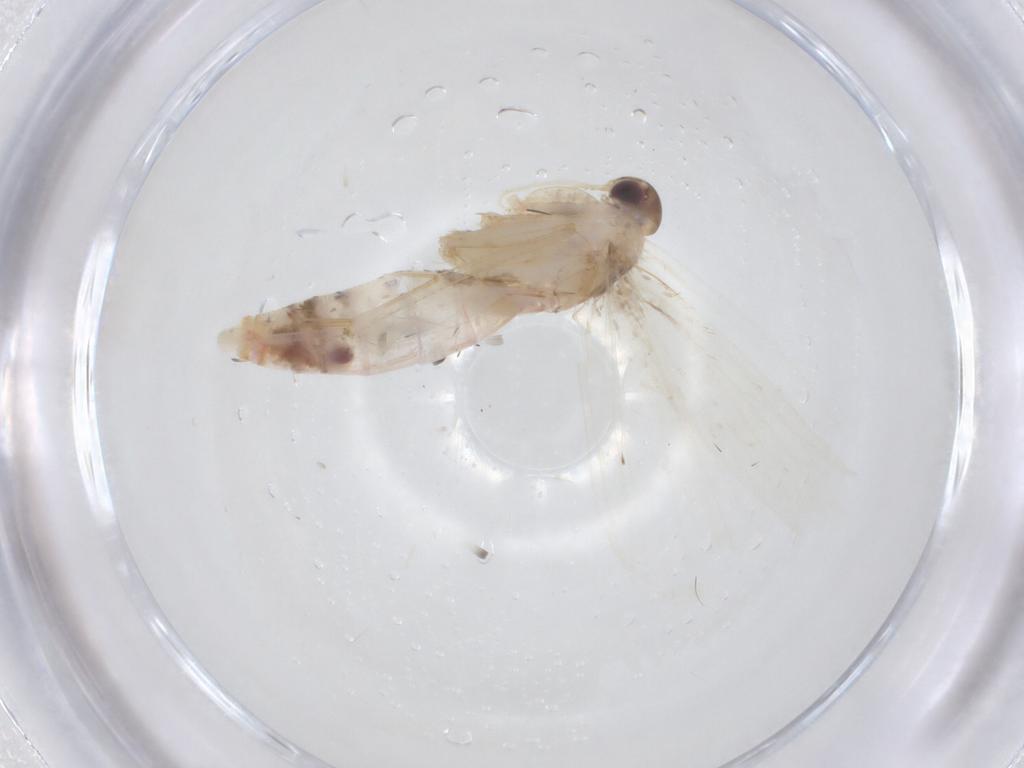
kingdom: Animalia
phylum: Arthropoda
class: Insecta
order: Lepidoptera
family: Gelechiidae
